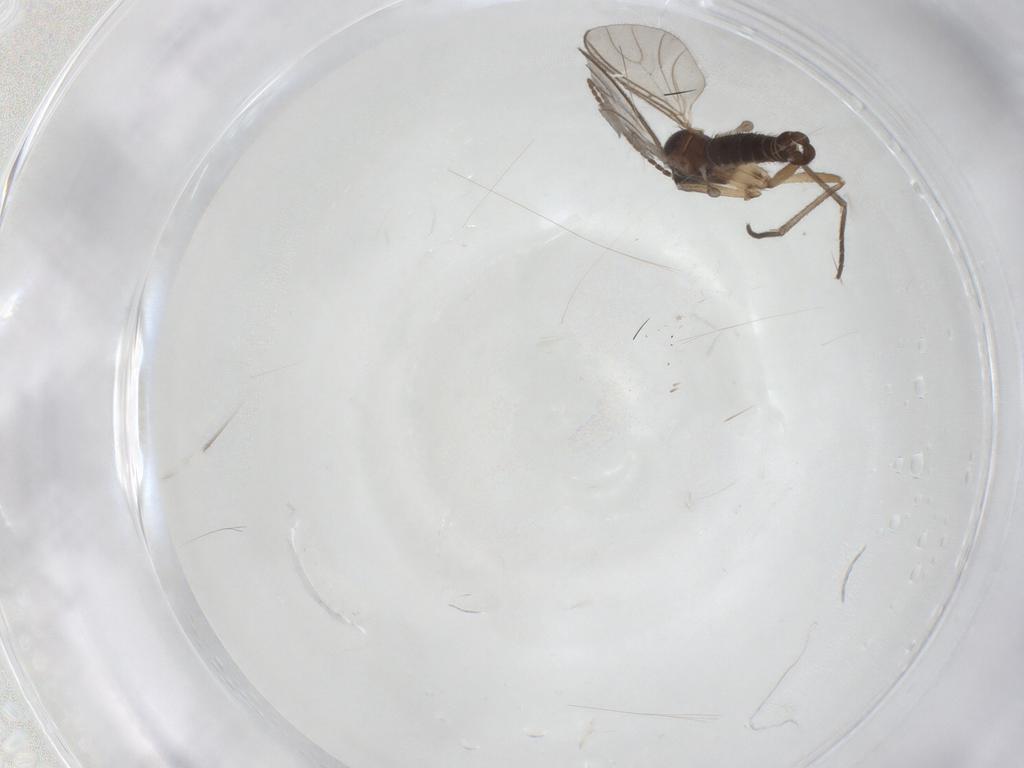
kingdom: Animalia
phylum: Arthropoda
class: Insecta
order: Diptera
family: Sciaridae
